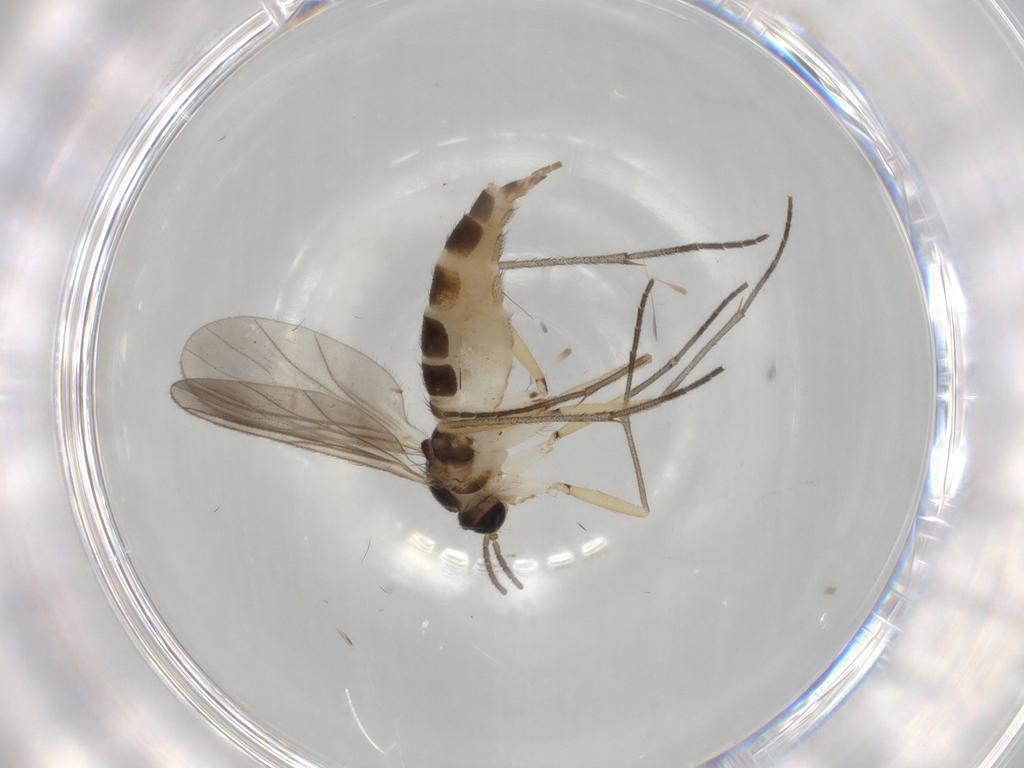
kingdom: Animalia
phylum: Arthropoda
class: Insecta
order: Diptera
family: Sciaridae
